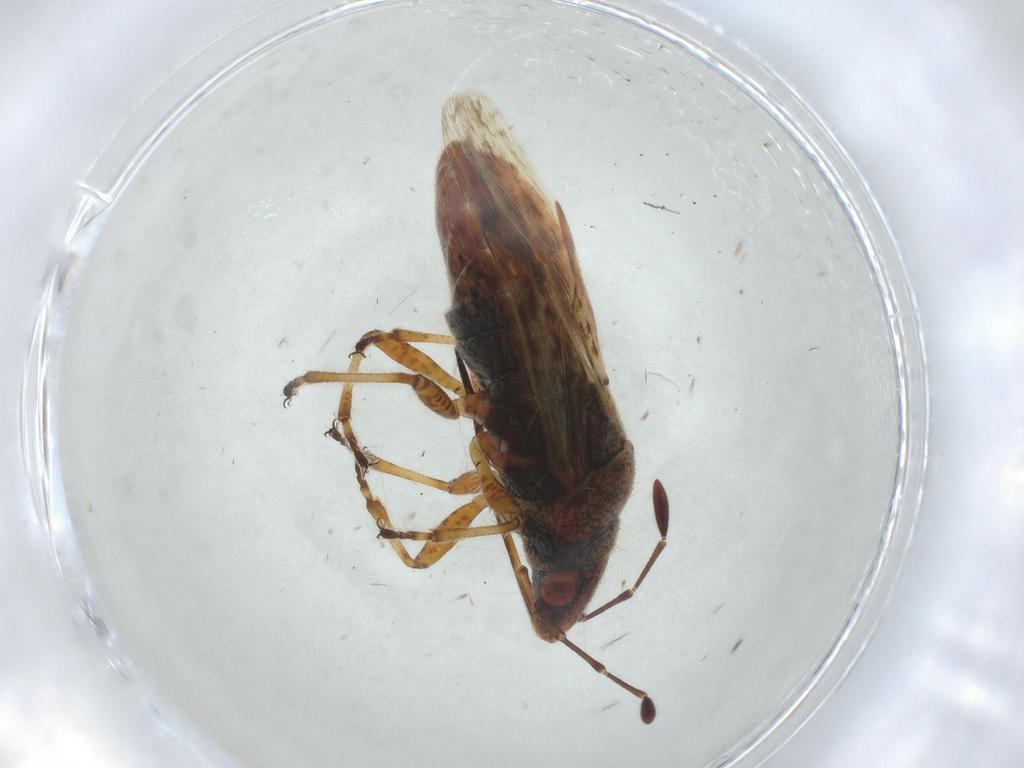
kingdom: Animalia
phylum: Arthropoda
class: Insecta
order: Hemiptera
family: Lygaeidae
